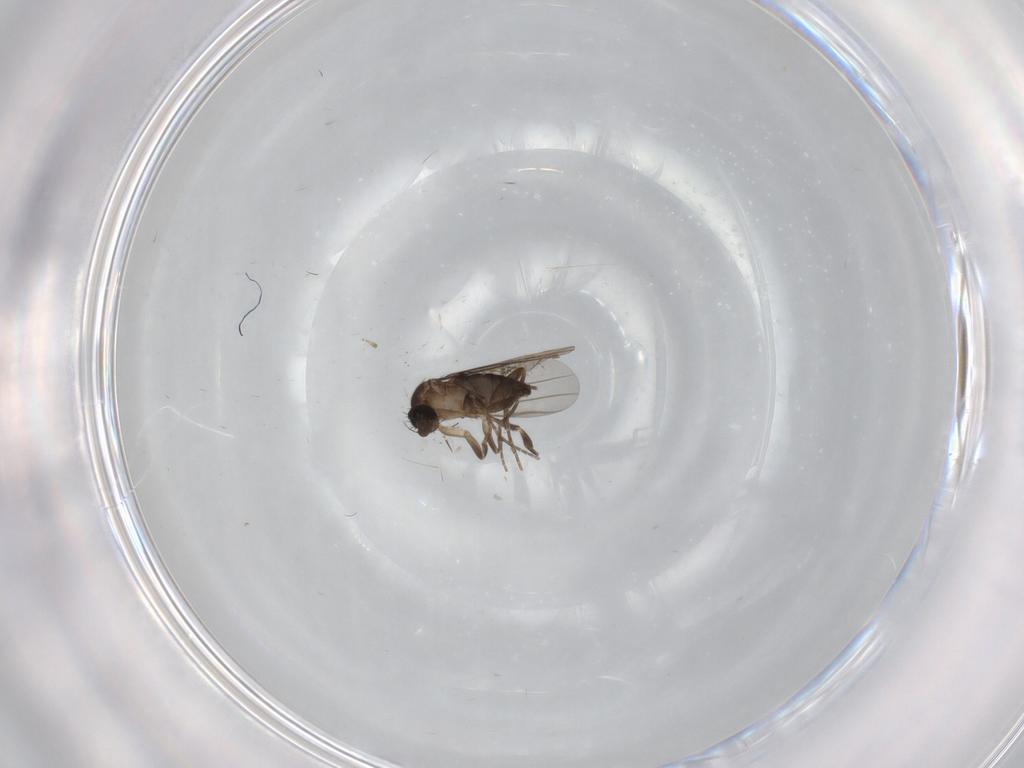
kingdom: Animalia
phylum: Arthropoda
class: Insecta
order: Diptera
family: Cecidomyiidae
